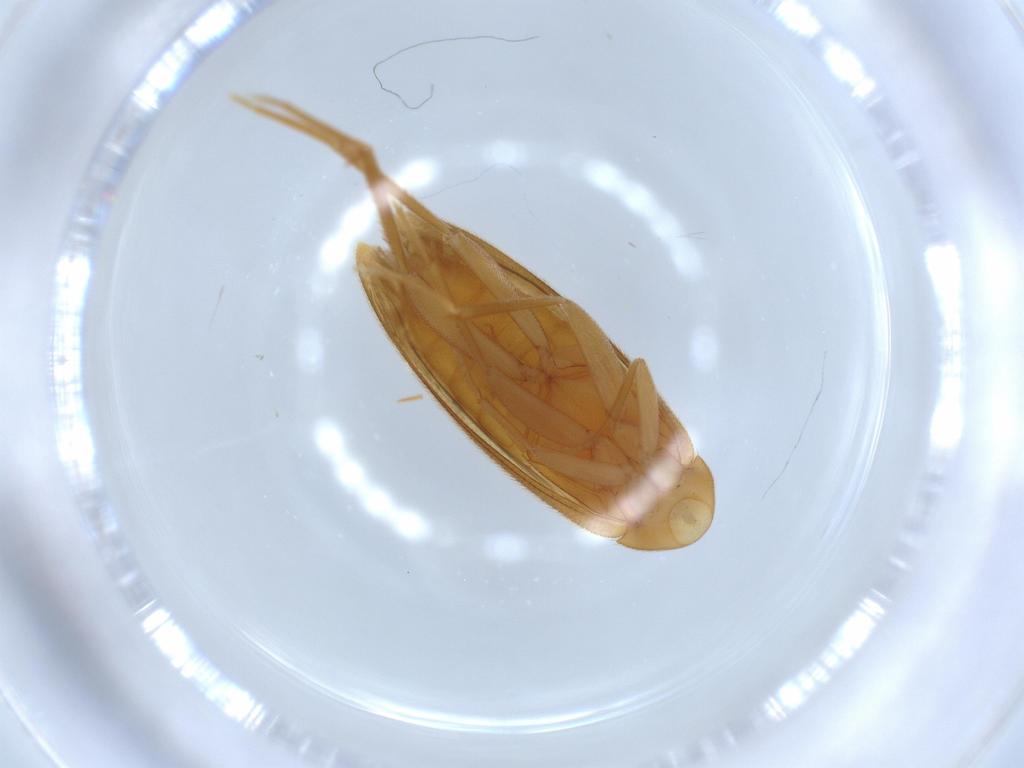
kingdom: Animalia
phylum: Arthropoda
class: Insecta
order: Coleoptera
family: Scraptiidae
